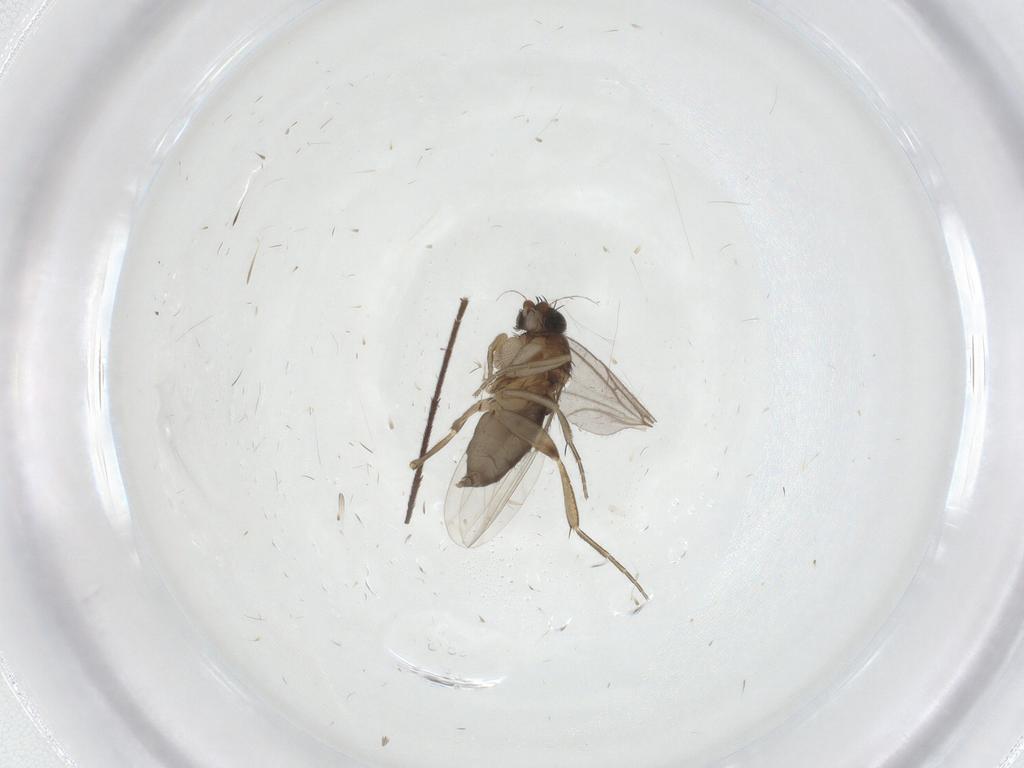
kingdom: Animalia
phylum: Arthropoda
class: Insecta
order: Diptera
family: Phoridae
